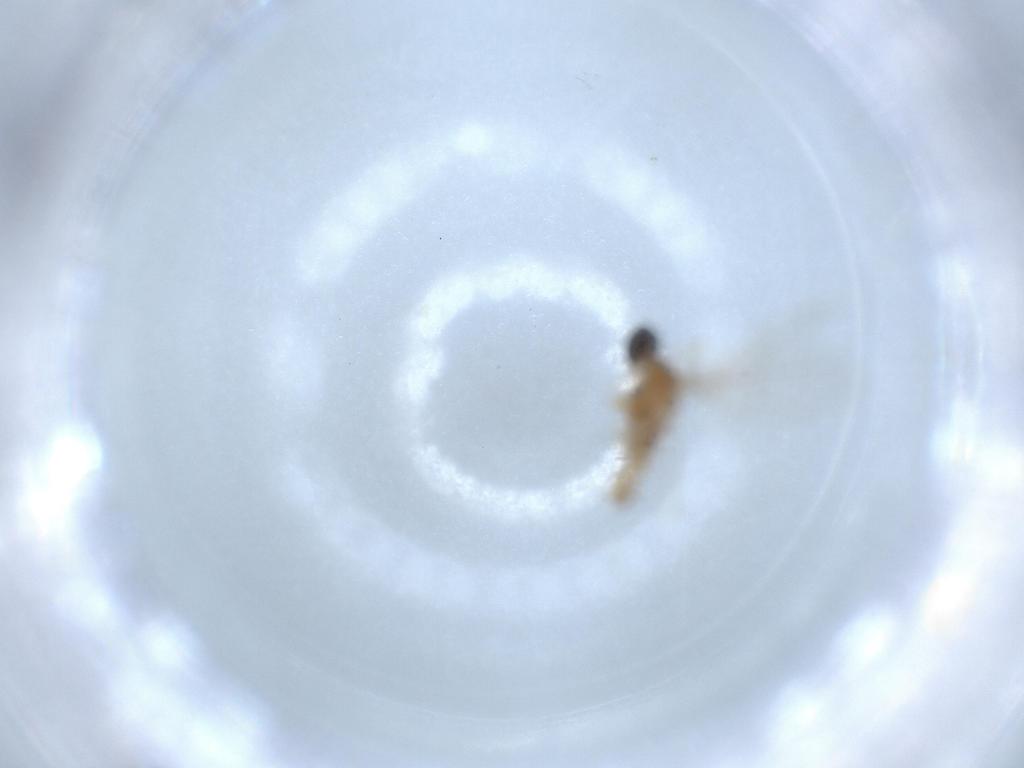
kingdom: Animalia
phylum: Arthropoda
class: Insecta
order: Diptera
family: Cecidomyiidae
